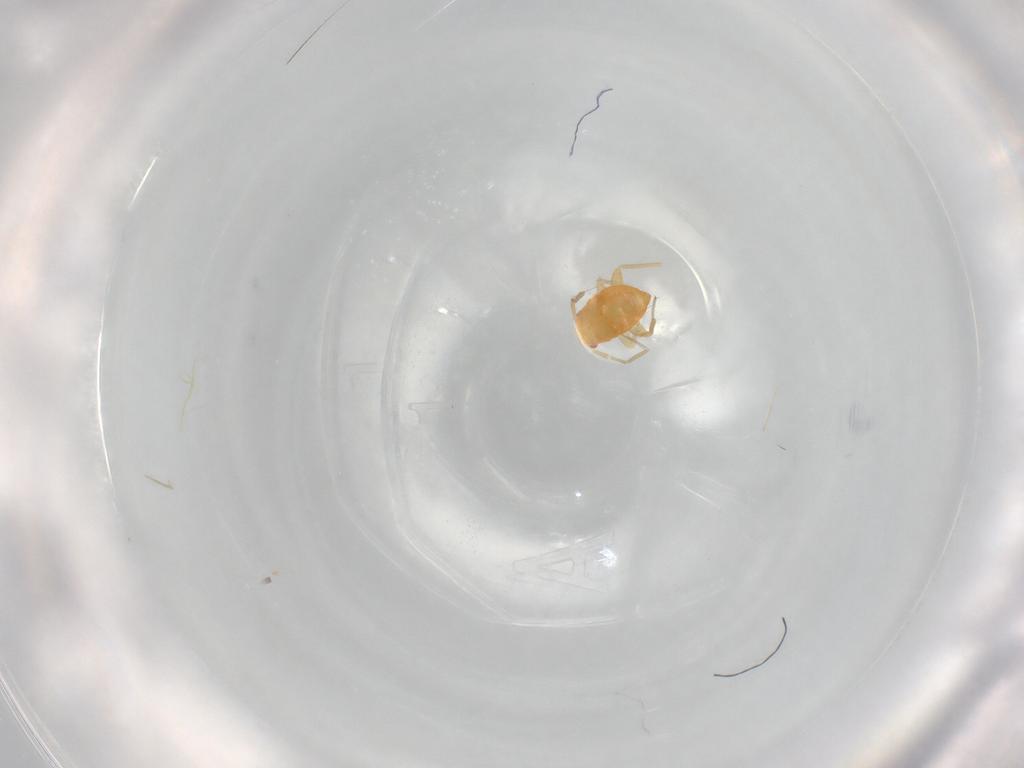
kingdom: Animalia
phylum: Arthropoda
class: Insecta
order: Hemiptera
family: Miridae
